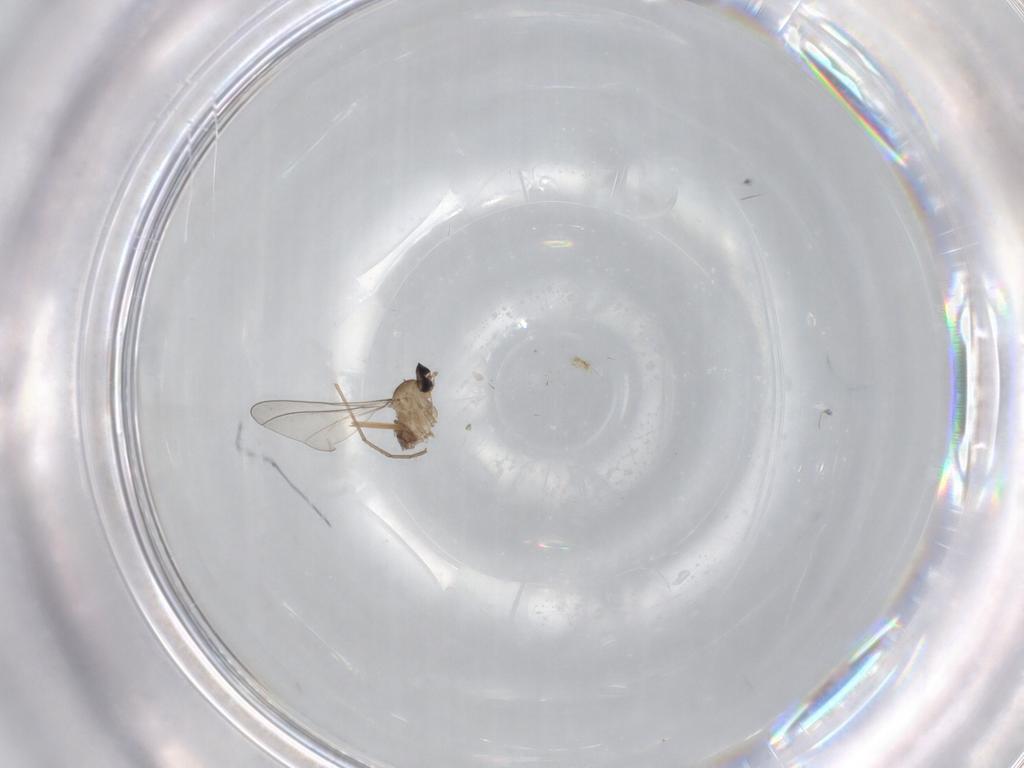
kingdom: Animalia
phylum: Arthropoda
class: Insecta
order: Diptera
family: Cecidomyiidae
